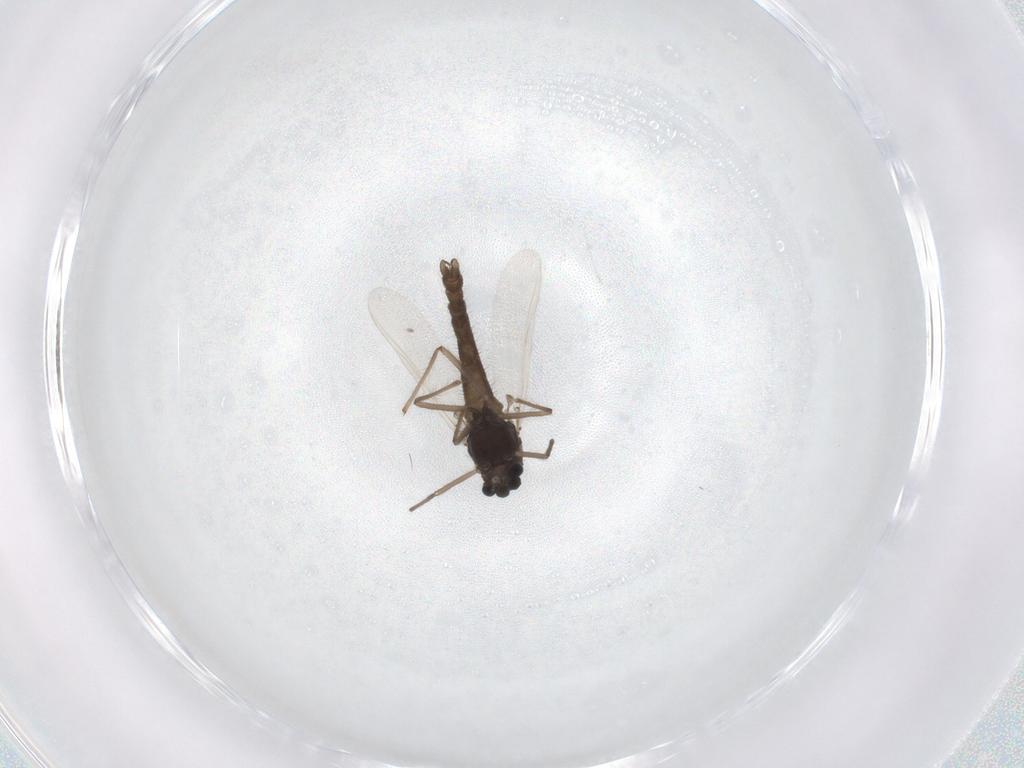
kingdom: Animalia
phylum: Arthropoda
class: Insecta
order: Diptera
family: Chironomidae
